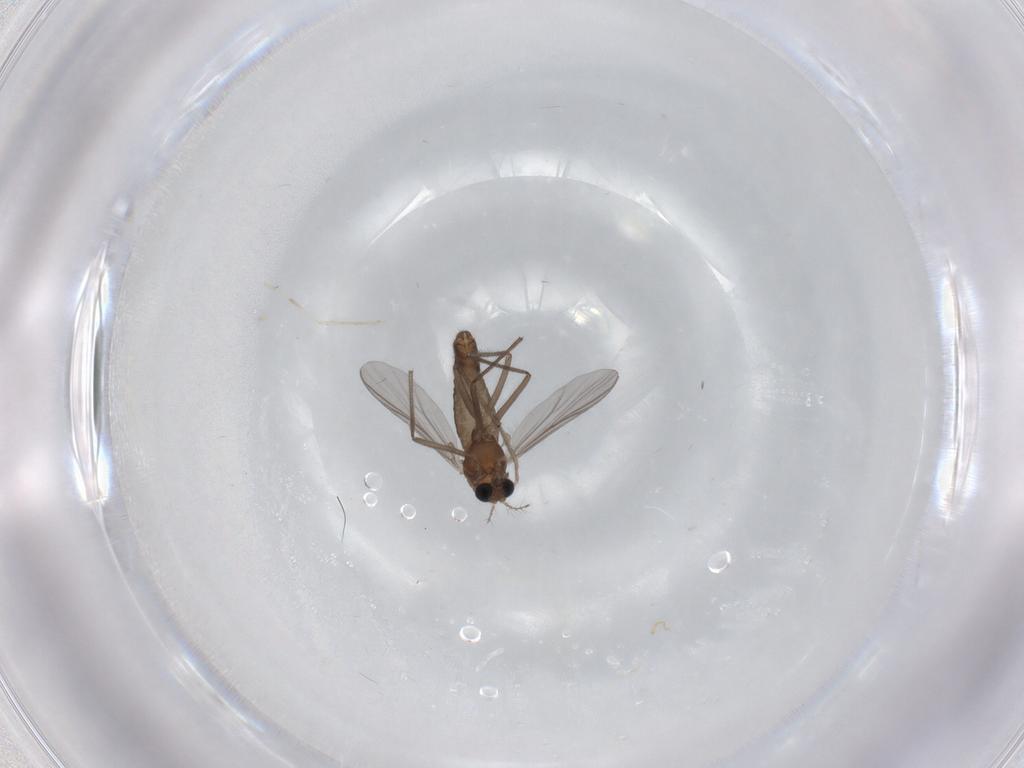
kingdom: Animalia
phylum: Arthropoda
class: Insecta
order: Diptera
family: Chironomidae
